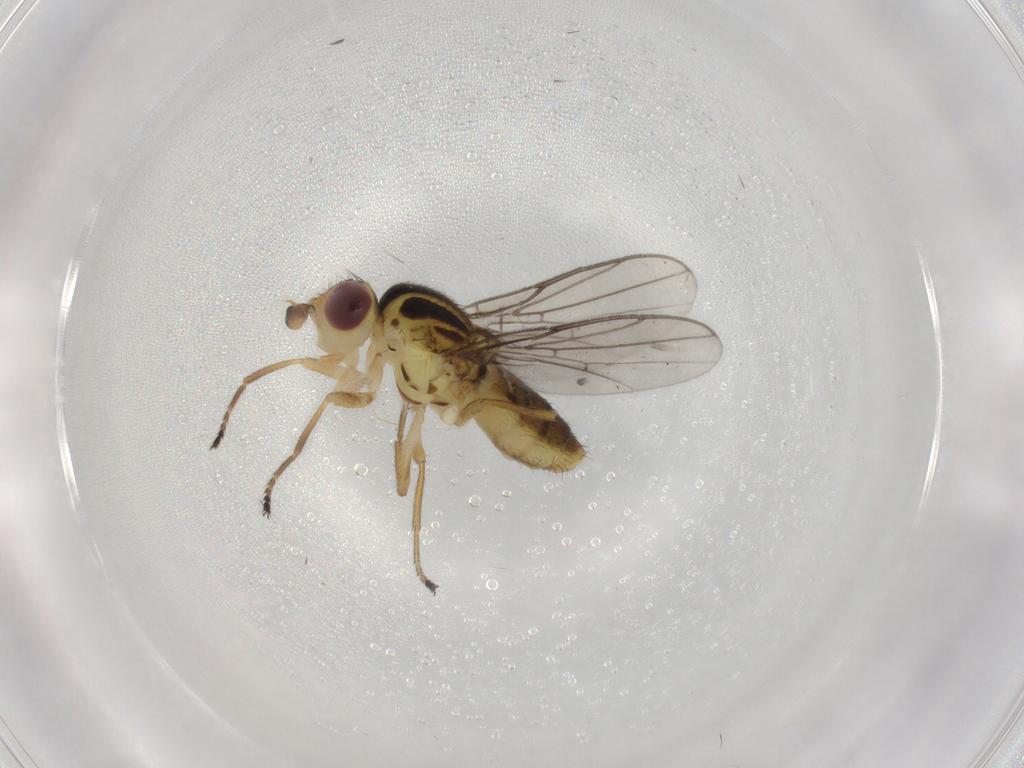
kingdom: Animalia
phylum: Arthropoda
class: Insecta
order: Diptera
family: Chloropidae
